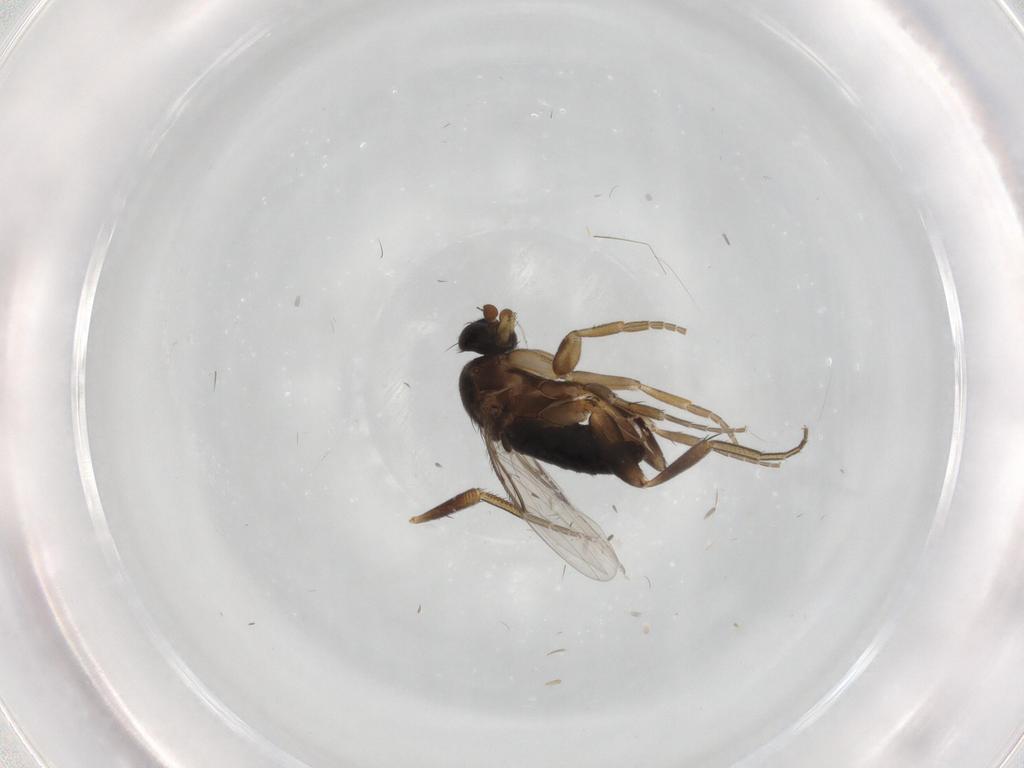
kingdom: Animalia
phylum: Arthropoda
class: Insecta
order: Diptera
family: Phoridae
